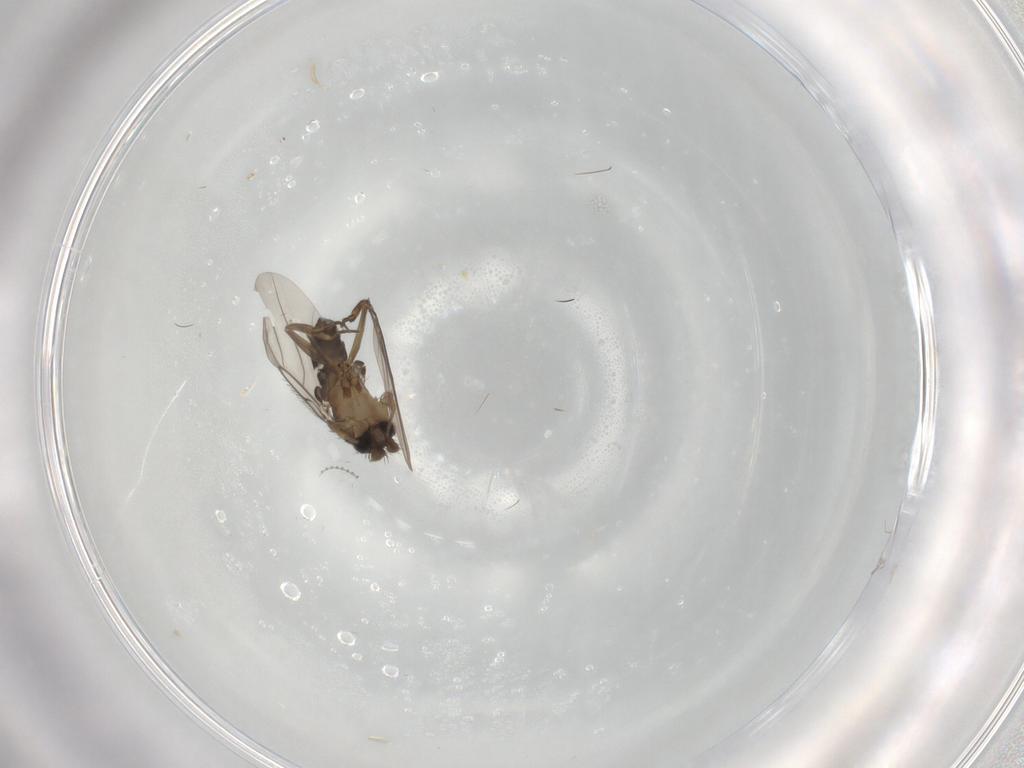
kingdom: Animalia
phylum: Arthropoda
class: Insecta
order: Diptera
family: Ceratopogonidae
